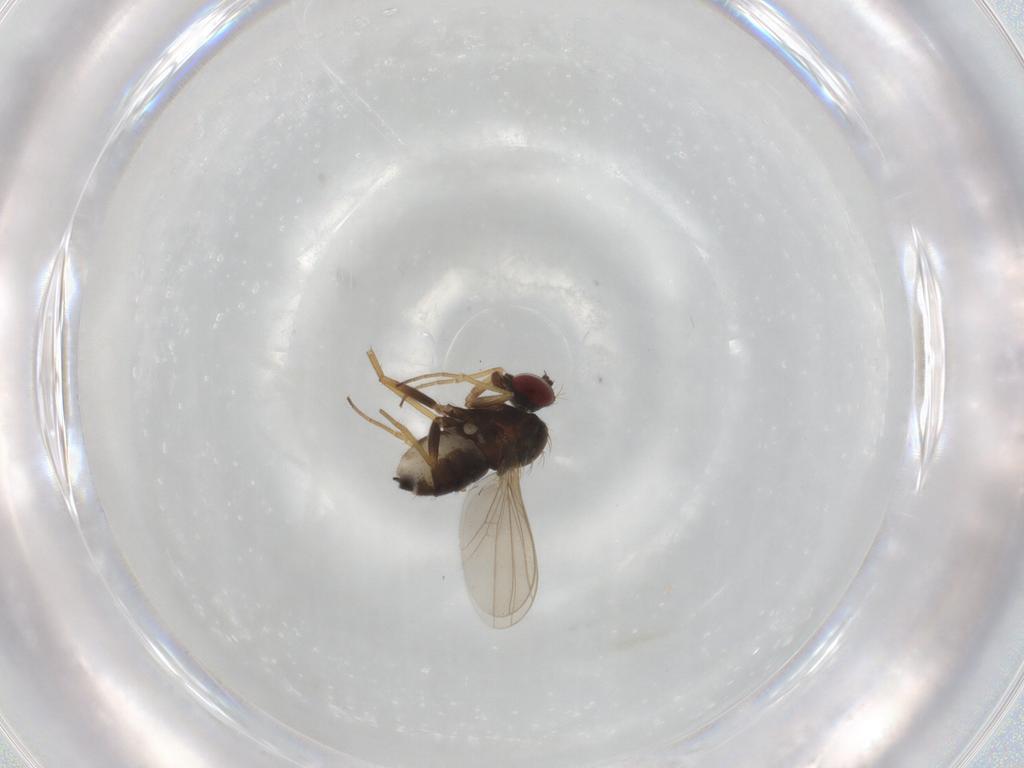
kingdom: Animalia
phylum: Arthropoda
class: Insecta
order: Diptera
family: Dolichopodidae
